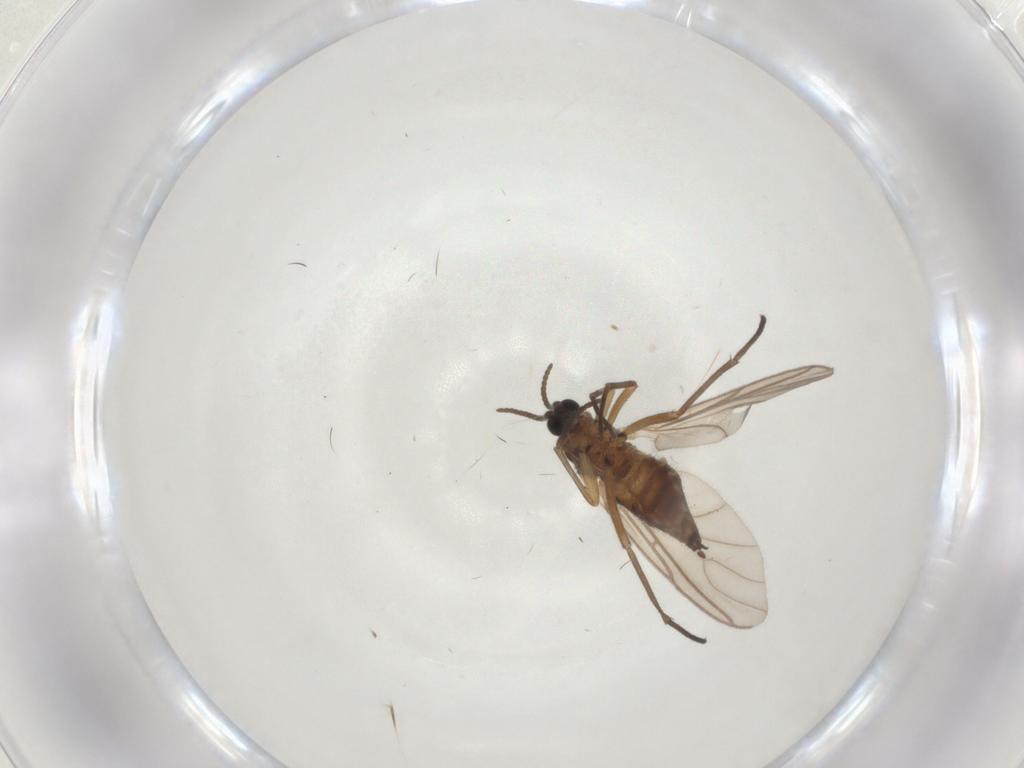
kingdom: Animalia
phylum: Arthropoda
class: Insecta
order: Diptera
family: Sciaridae
